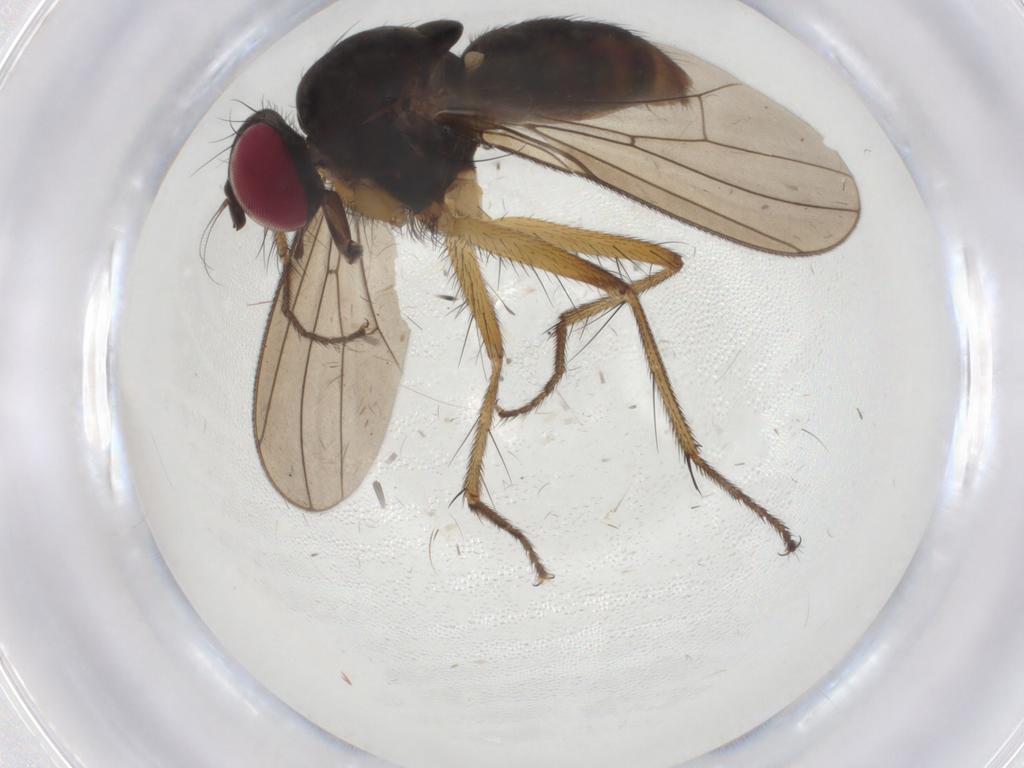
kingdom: Animalia
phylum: Arthropoda
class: Insecta
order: Diptera
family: Anthomyiidae
